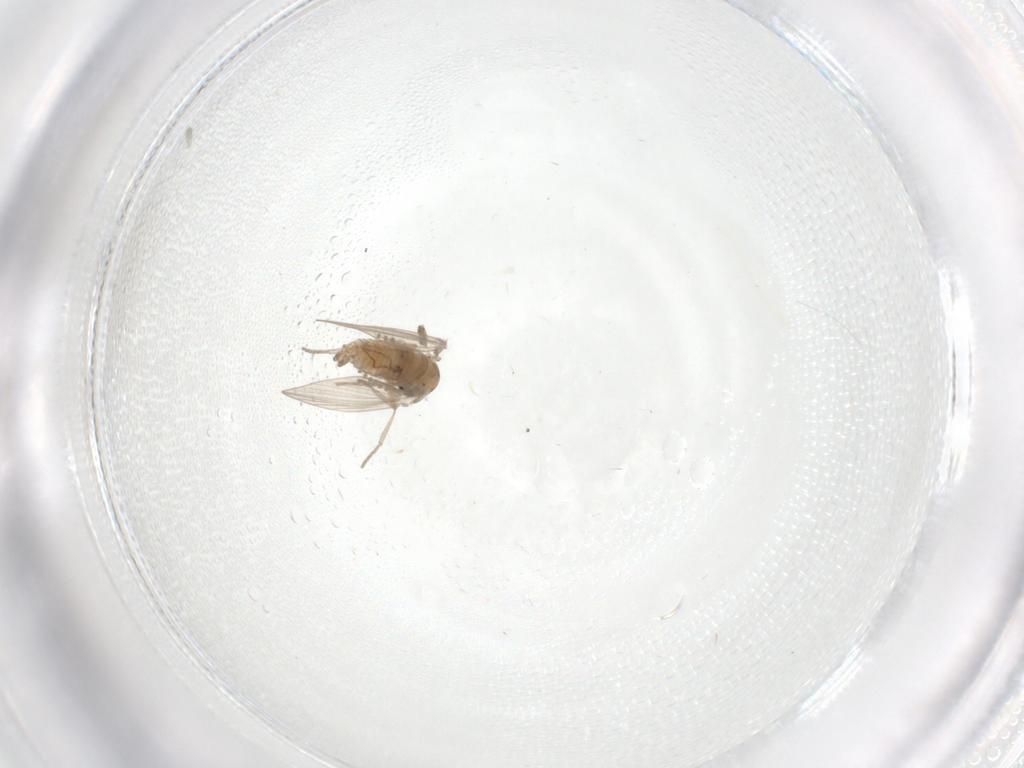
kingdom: Animalia
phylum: Arthropoda
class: Insecta
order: Diptera
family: Psychodidae
